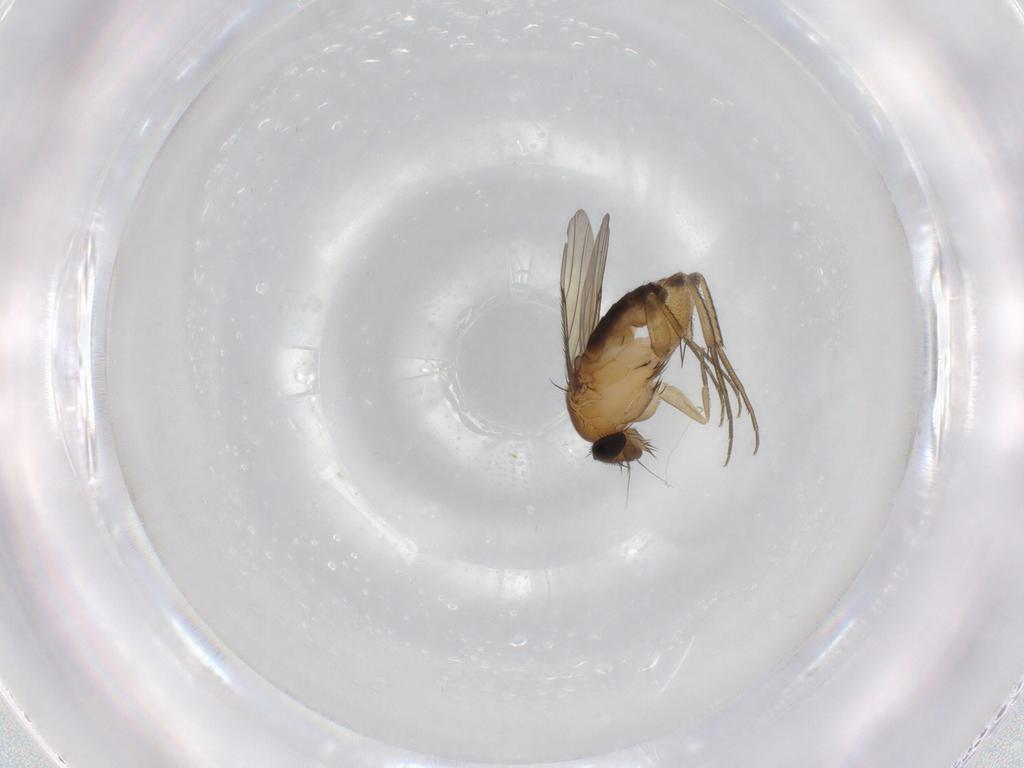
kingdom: Animalia
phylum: Arthropoda
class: Insecta
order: Diptera
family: Phoridae
